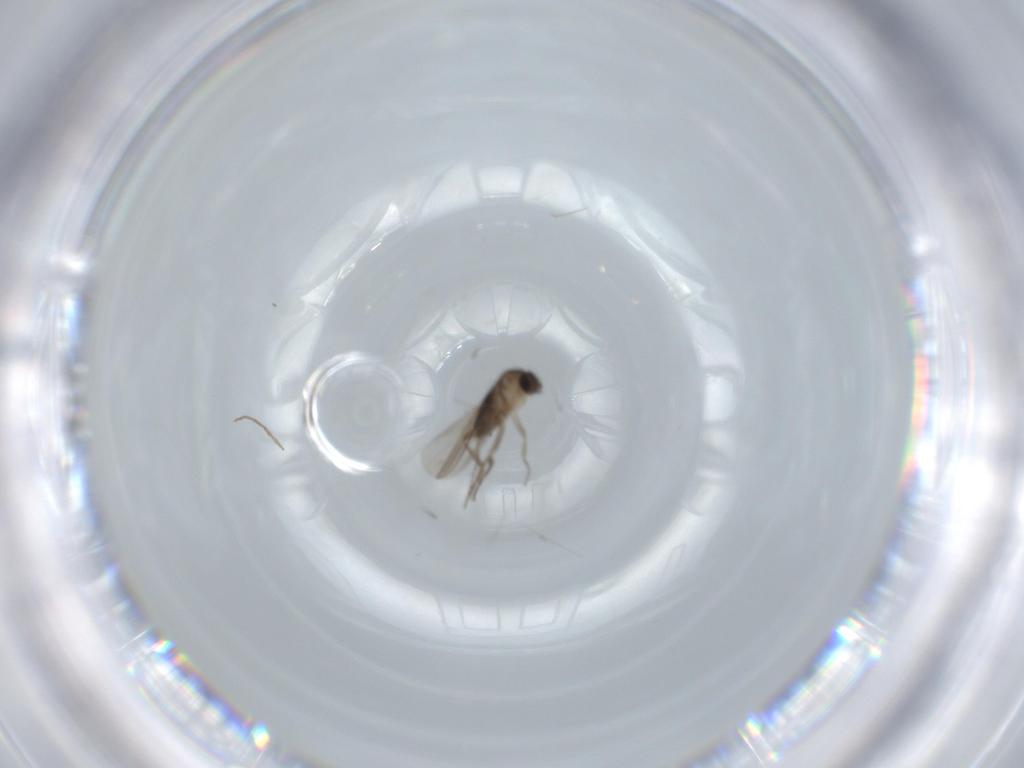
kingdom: Animalia
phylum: Arthropoda
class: Insecta
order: Diptera
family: Phoridae
